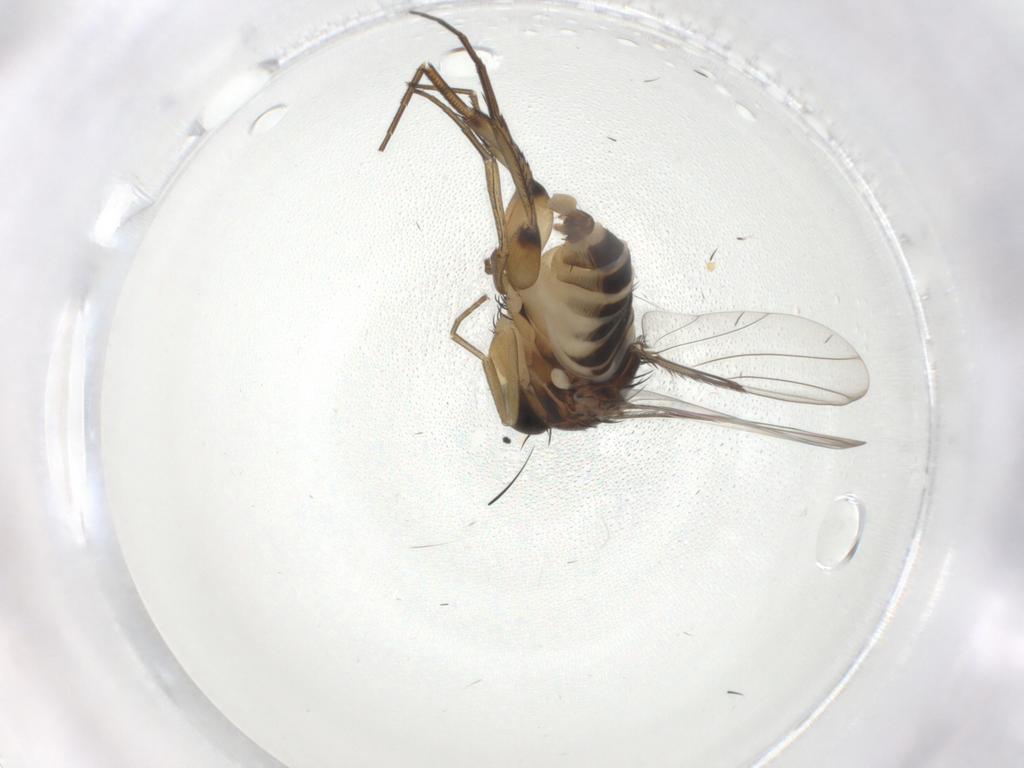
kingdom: Animalia
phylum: Arthropoda
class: Insecta
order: Diptera
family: Phoridae
